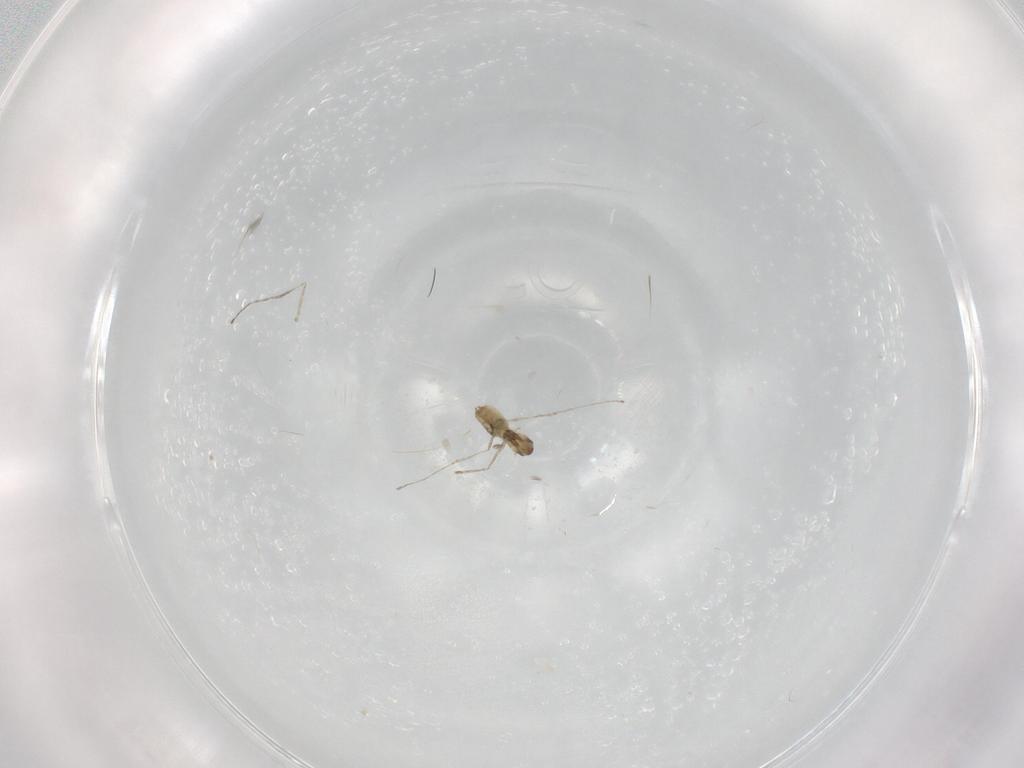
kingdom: Animalia
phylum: Arthropoda
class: Insecta
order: Diptera
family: Cecidomyiidae
